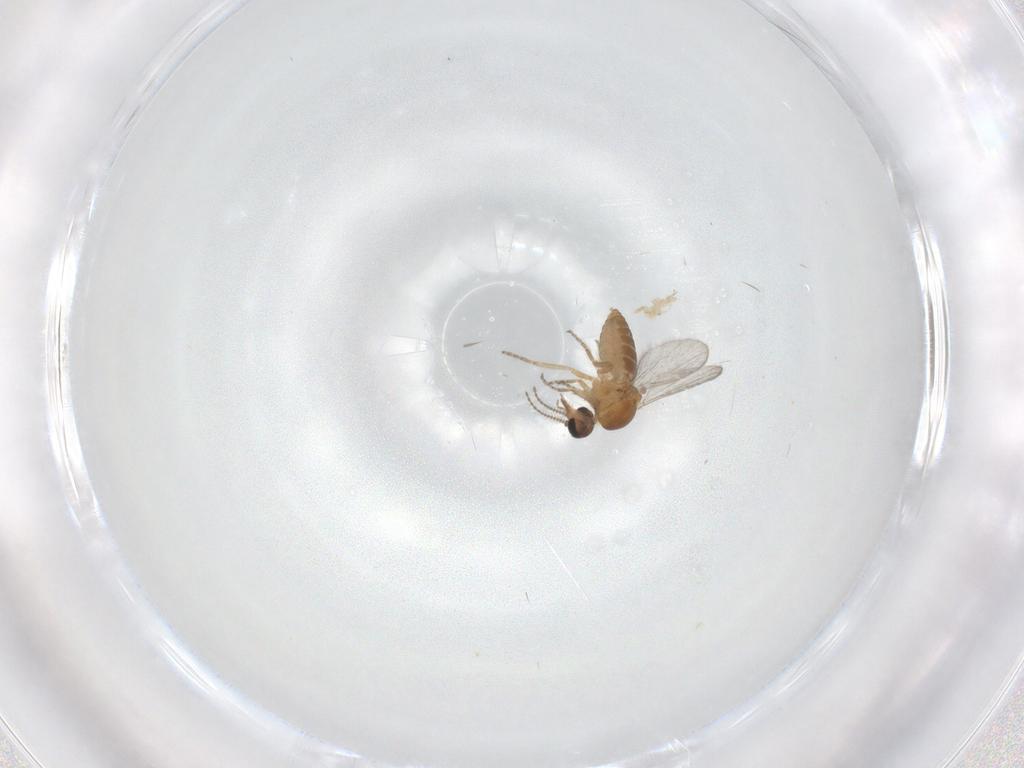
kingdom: Animalia
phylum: Arthropoda
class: Insecta
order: Diptera
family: Ceratopogonidae
